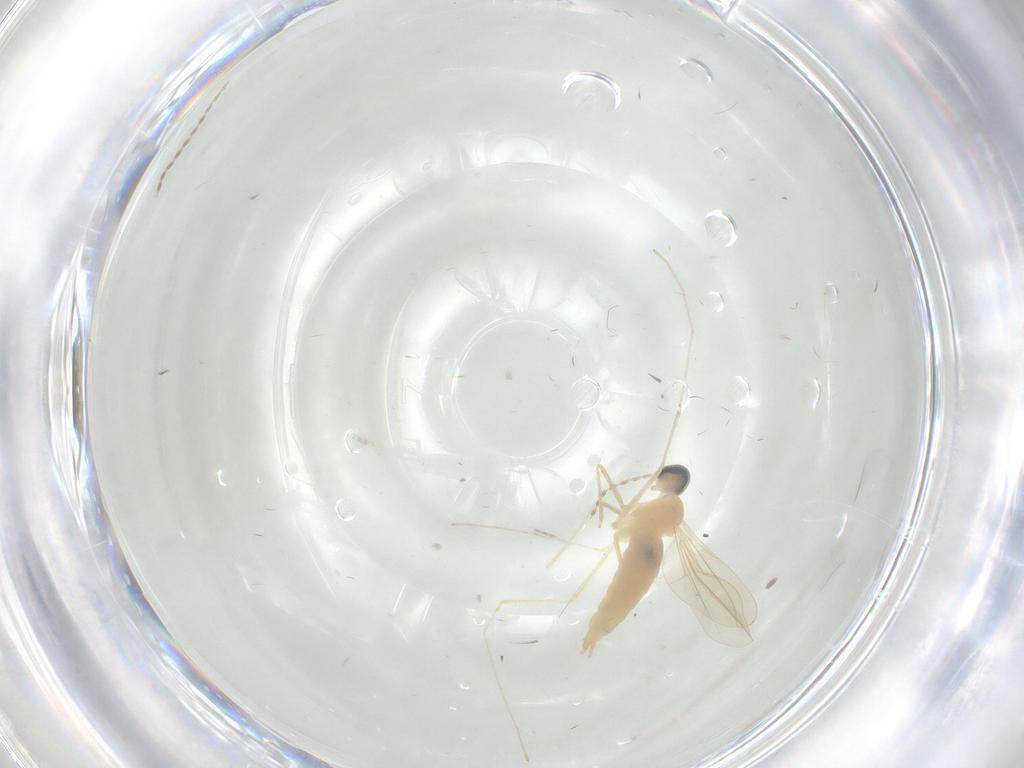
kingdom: Animalia
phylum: Arthropoda
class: Insecta
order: Diptera
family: Cecidomyiidae
